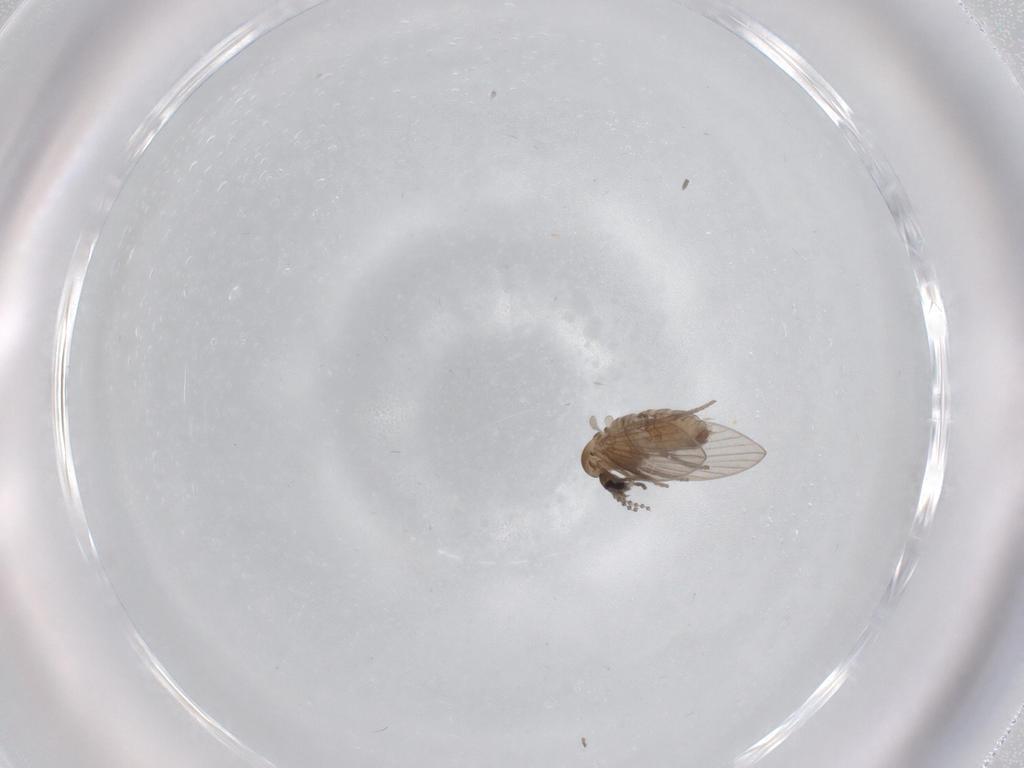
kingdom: Animalia
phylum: Arthropoda
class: Insecta
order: Diptera
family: Psychodidae
